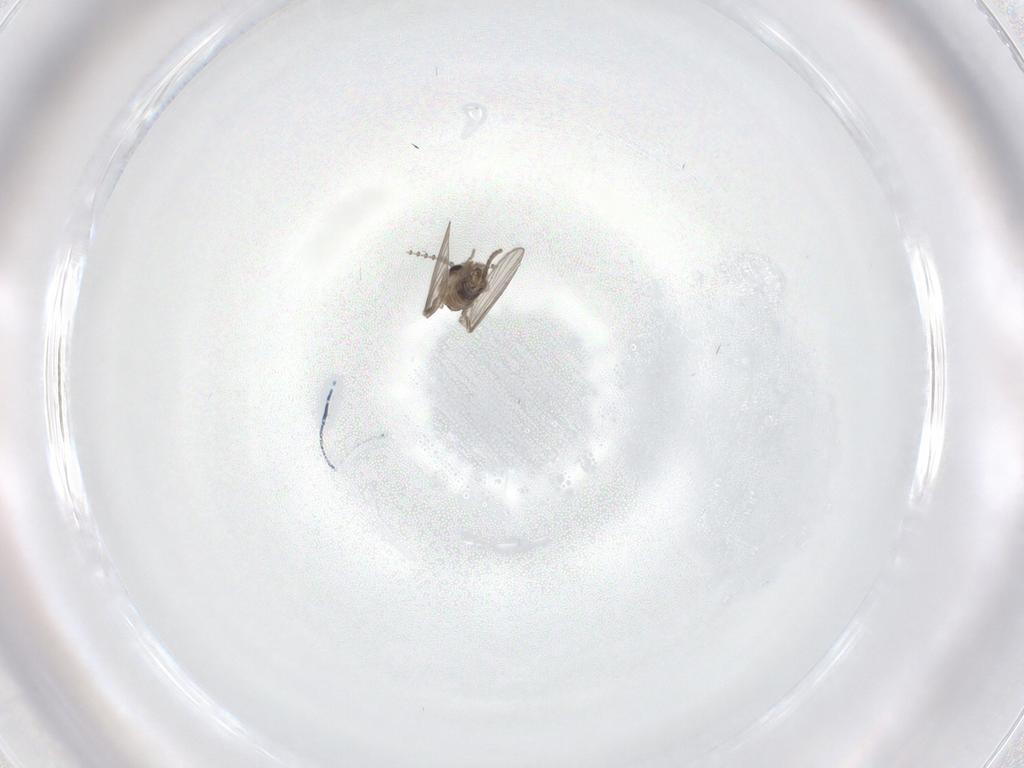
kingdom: Animalia
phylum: Arthropoda
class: Insecta
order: Diptera
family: Psychodidae
